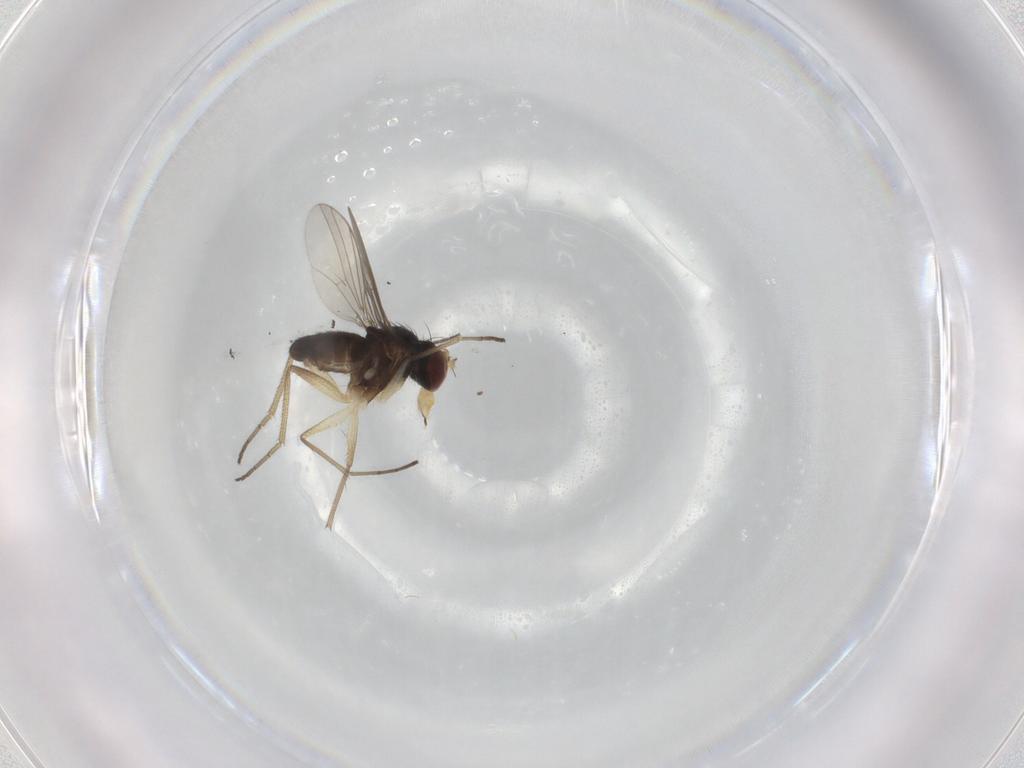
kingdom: Animalia
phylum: Arthropoda
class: Insecta
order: Diptera
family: Dolichopodidae
